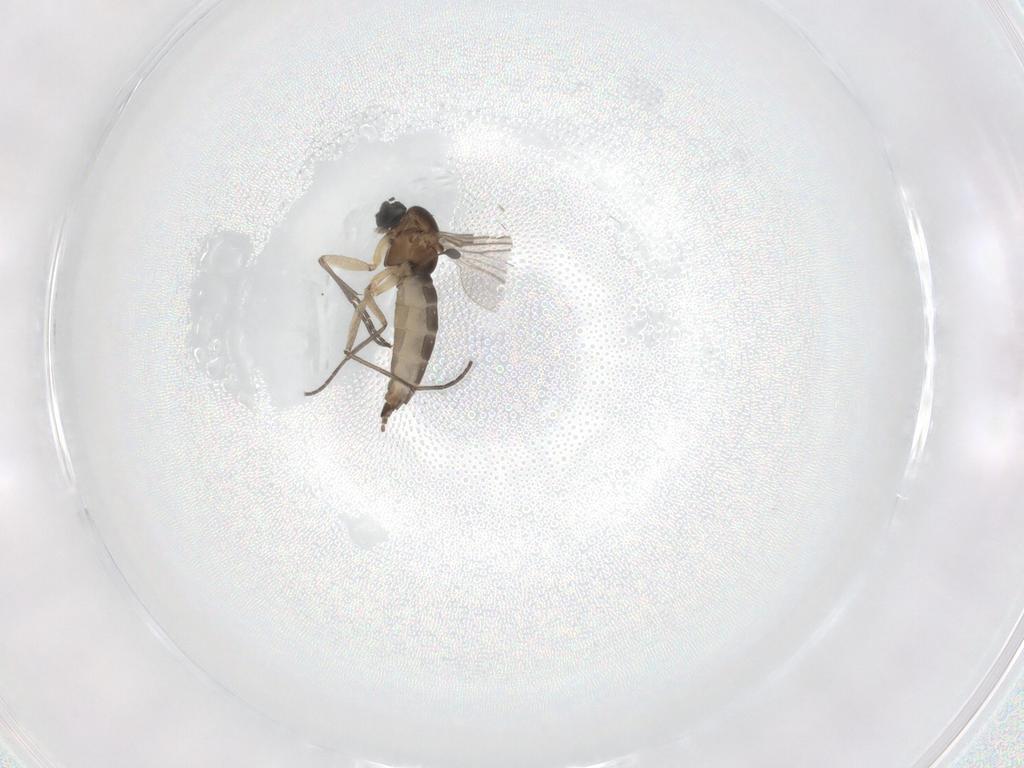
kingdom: Animalia
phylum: Arthropoda
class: Insecta
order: Diptera
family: Sciaridae
